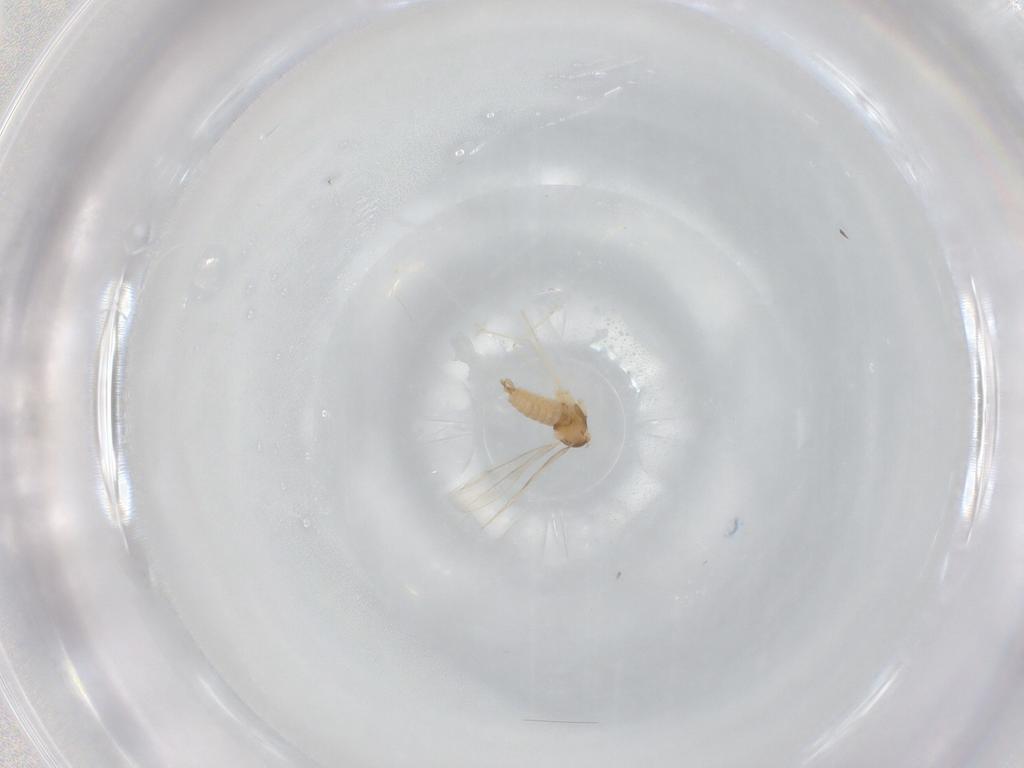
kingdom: Animalia
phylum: Arthropoda
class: Insecta
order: Diptera
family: Cecidomyiidae
